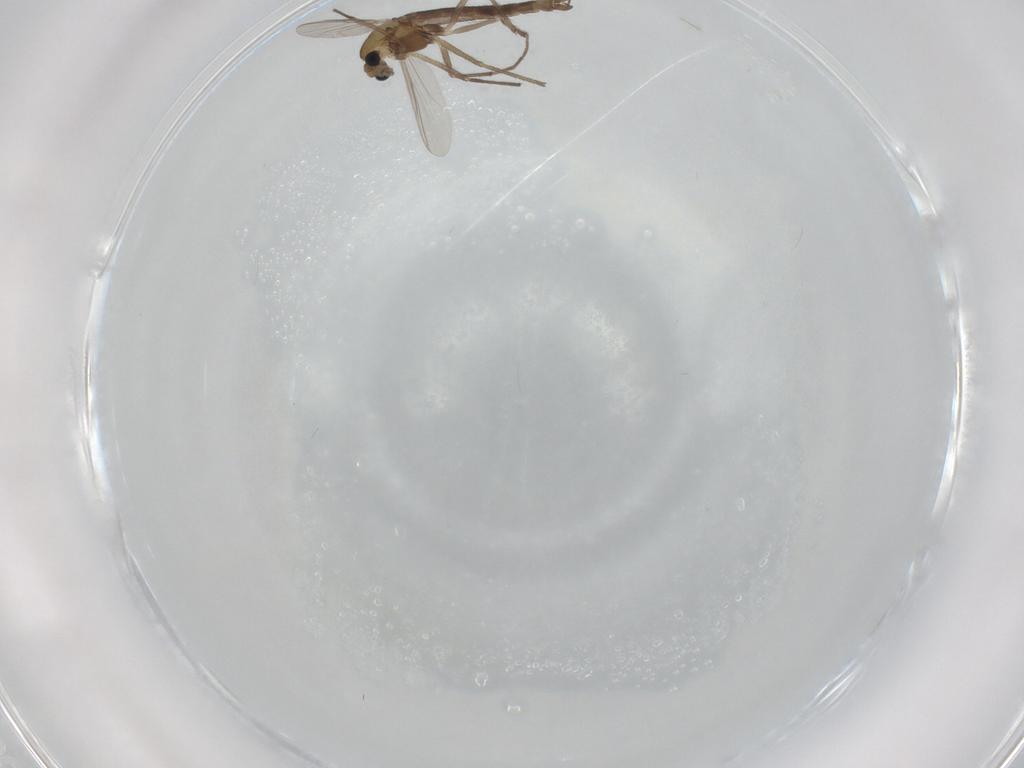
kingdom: Animalia
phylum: Arthropoda
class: Insecta
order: Diptera
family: Chironomidae
